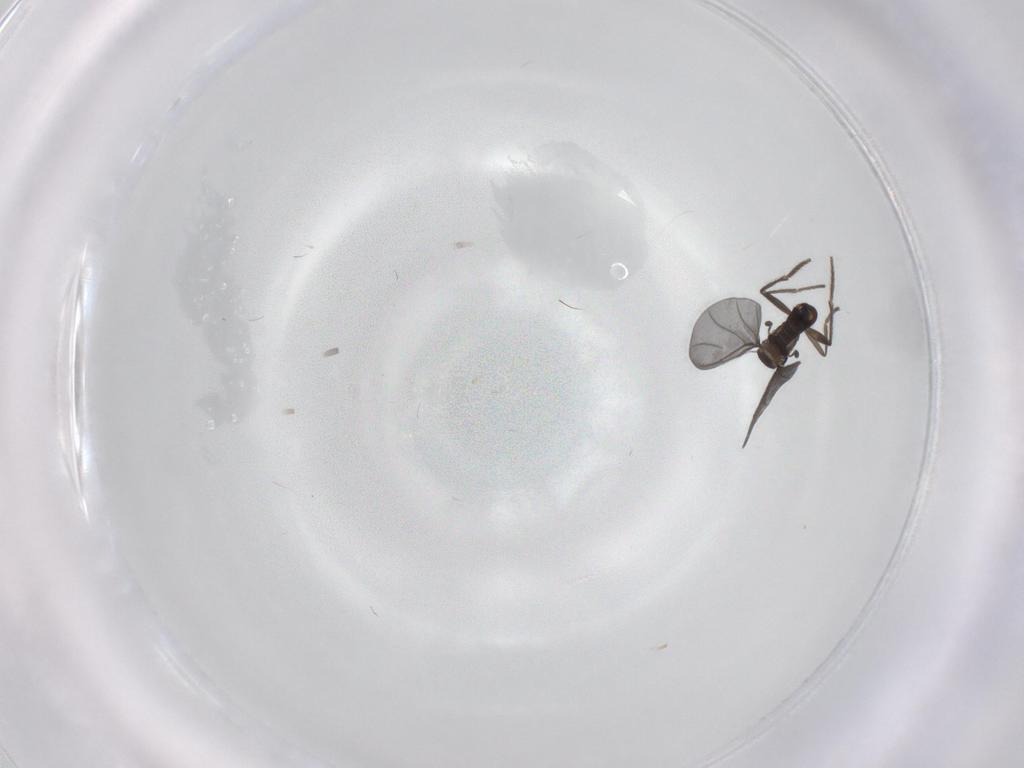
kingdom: Animalia
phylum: Arthropoda
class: Insecta
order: Diptera
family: Phoridae
